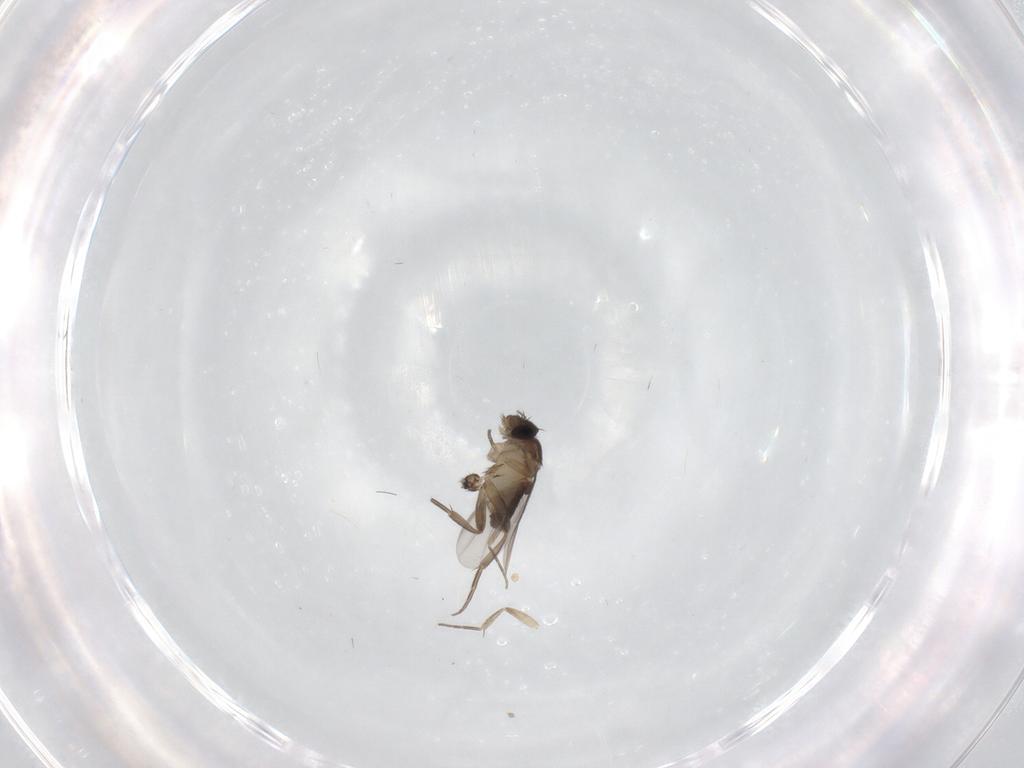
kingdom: Animalia
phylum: Arthropoda
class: Insecta
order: Diptera
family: Phoridae
